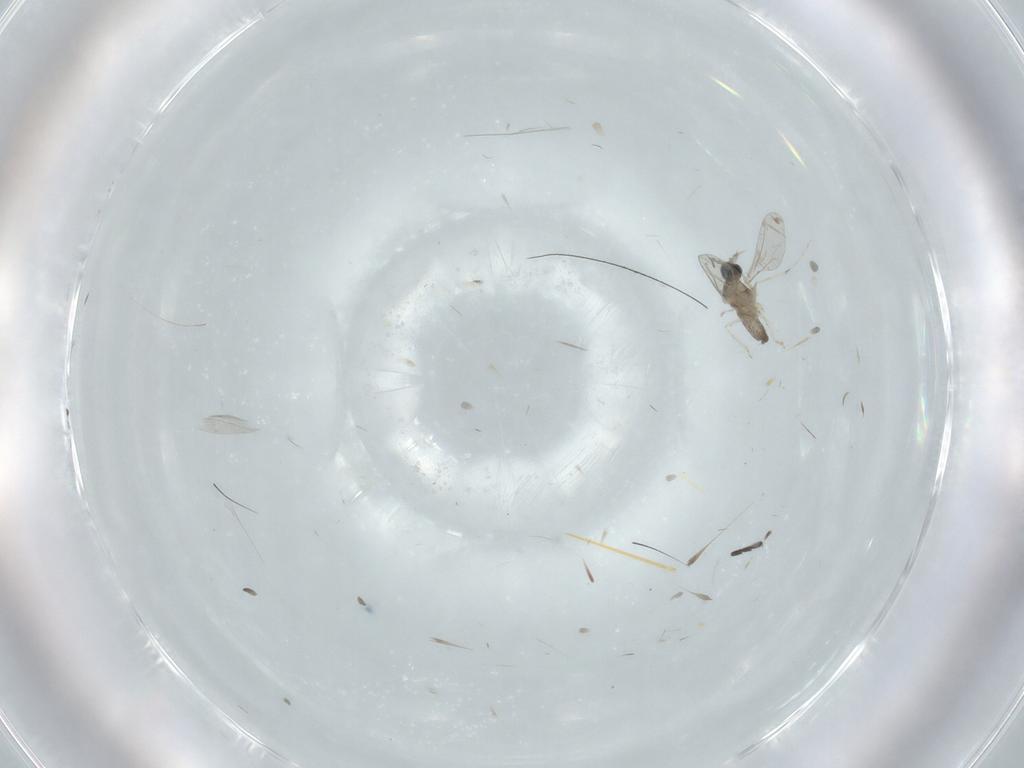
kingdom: Animalia
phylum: Arthropoda
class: Insecta
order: Diptera
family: Cecidomyiidae
